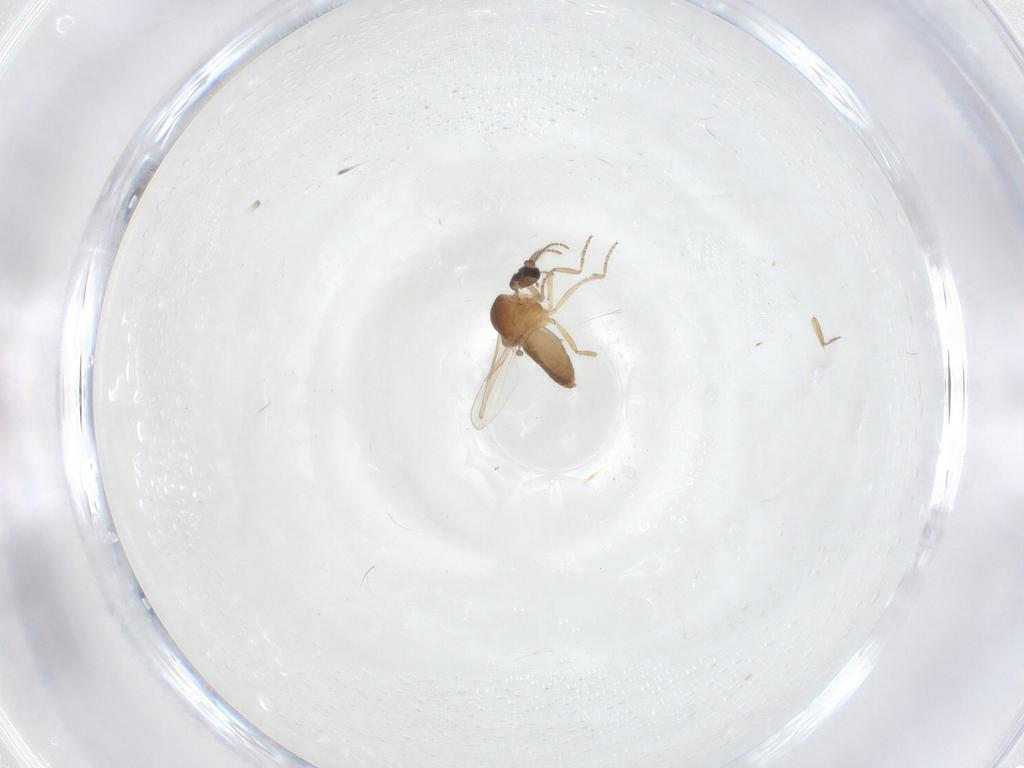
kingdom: Animalia
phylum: Arthropoda
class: Insecta
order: Diptera
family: Ceratopogonidae
